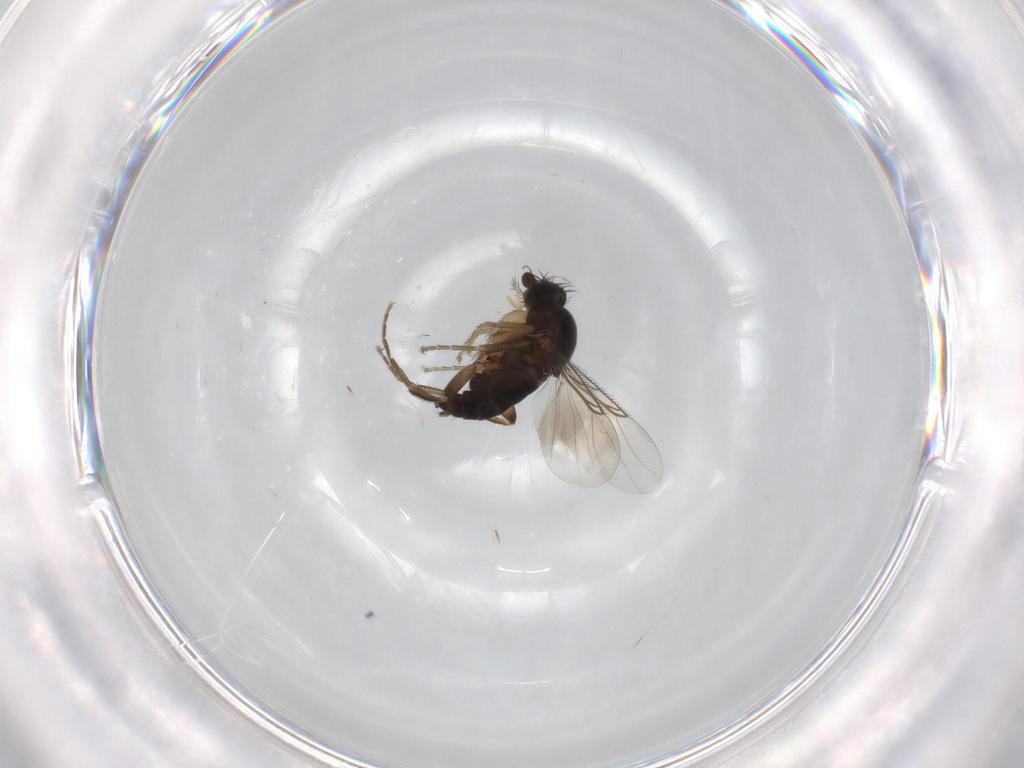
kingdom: Animalia
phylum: Arthropoda
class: Insecta
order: Diptera
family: Phoridae
